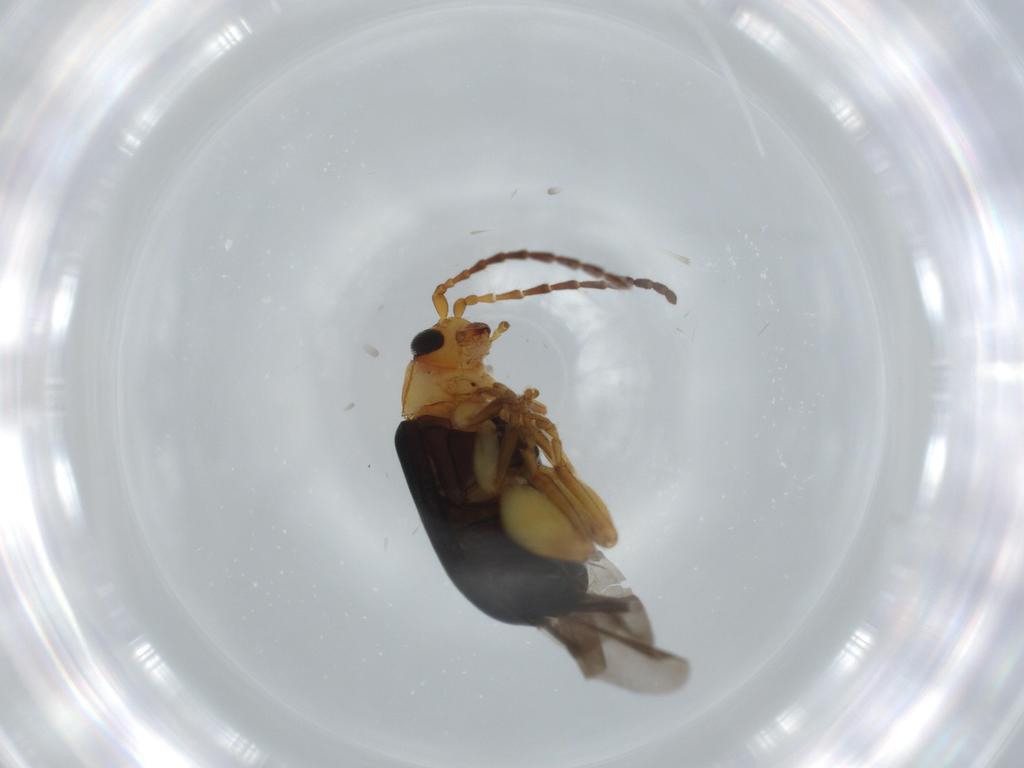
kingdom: Animalia
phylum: Arthropoda
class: Insecta
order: Coleoptera
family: Chrysomelidae
